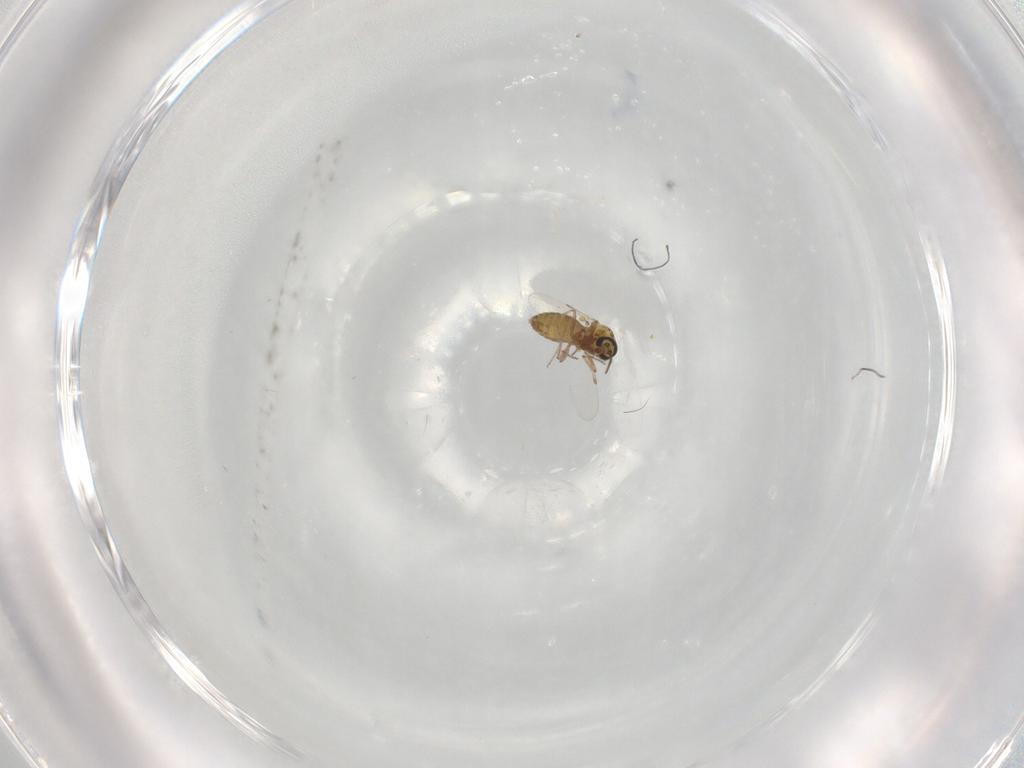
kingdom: Animalia
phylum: Arthropoda
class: Insecta
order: Diptera
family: Ceratopogonidae
